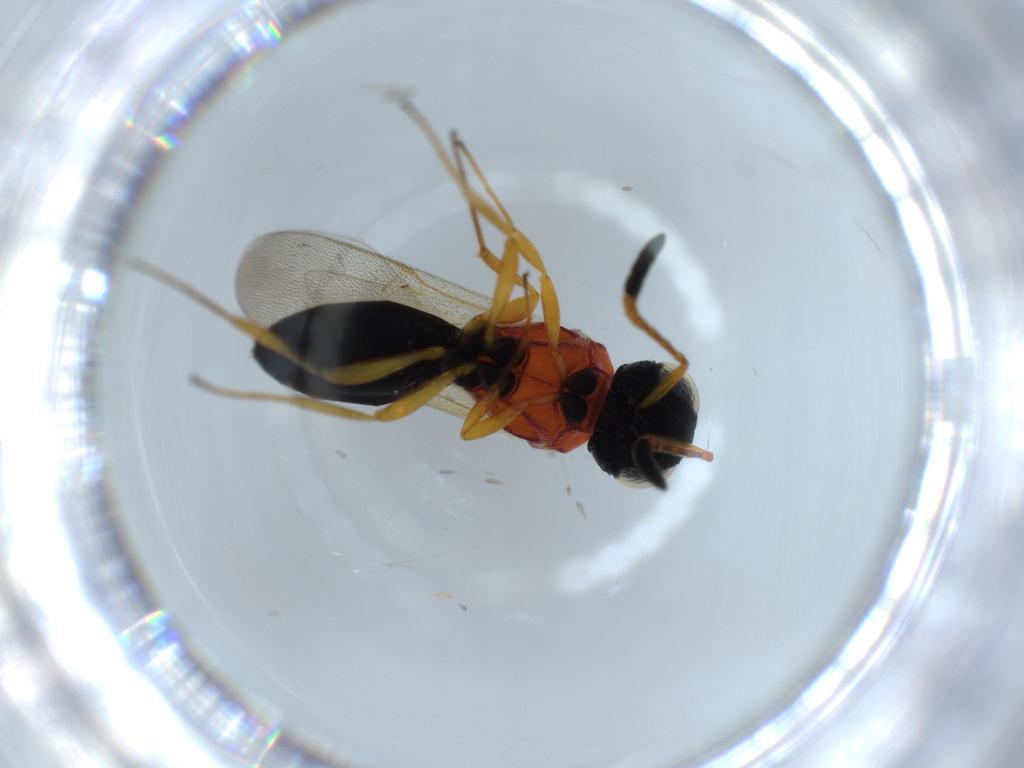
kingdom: Animalia
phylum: Arthropoda
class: Insecta
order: Hymenoptera
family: Scelionidae
